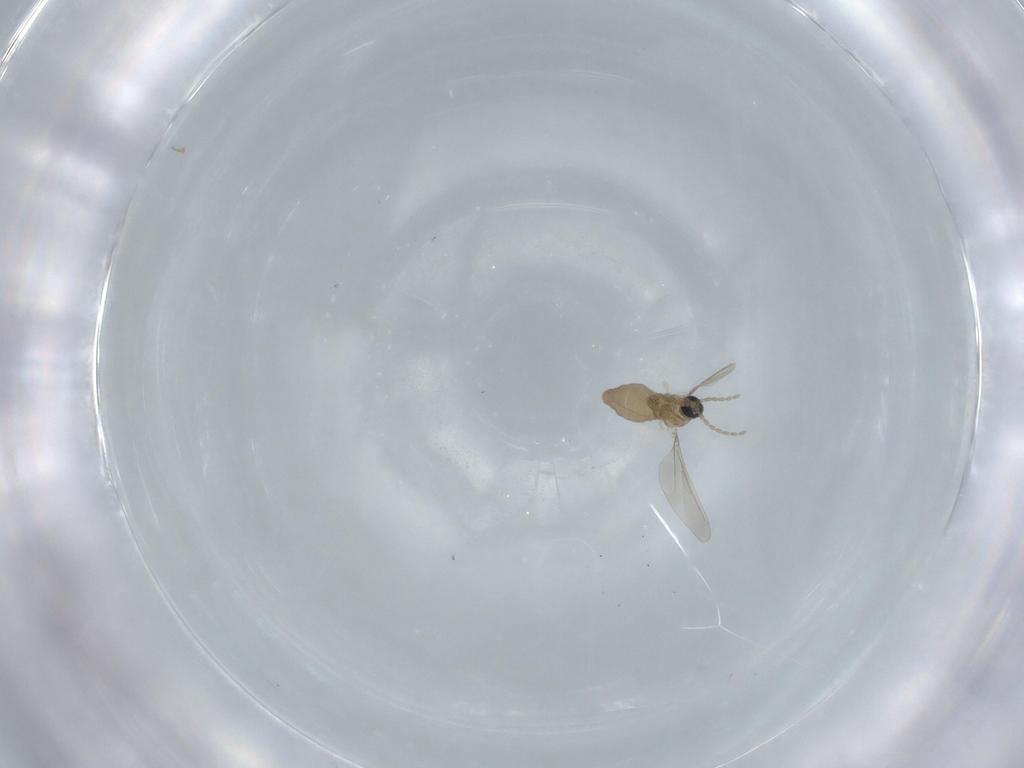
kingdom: Animalia
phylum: Arthropoda
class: Insecta
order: Diptera
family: Cecidomyiidae
